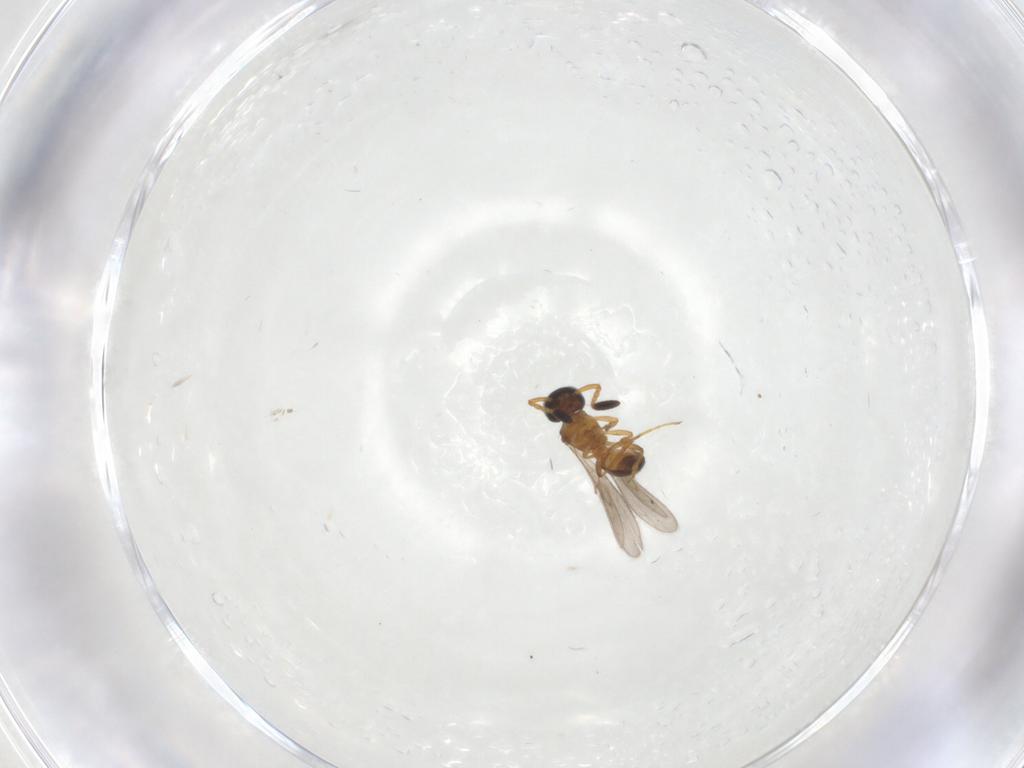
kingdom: Animalia
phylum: Arthropoda
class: Insecta
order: Hymenoptera
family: Scelionidae
